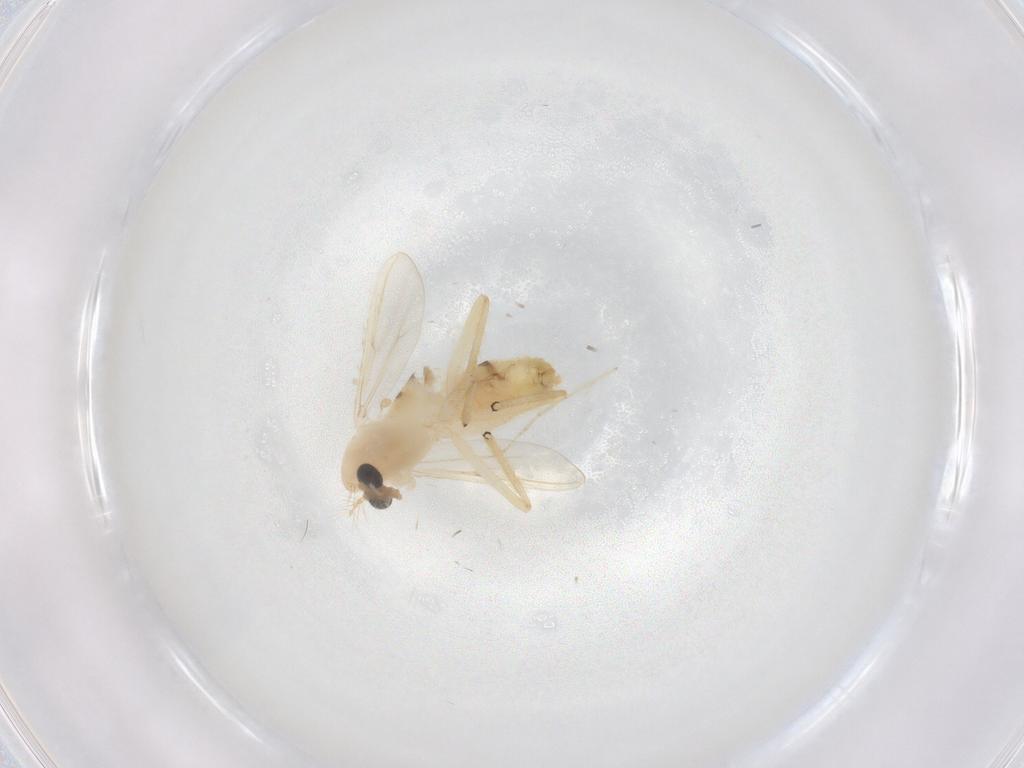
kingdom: Animalia
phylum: Arthropoda
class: Insecta
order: Diptera
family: Chironomidae
